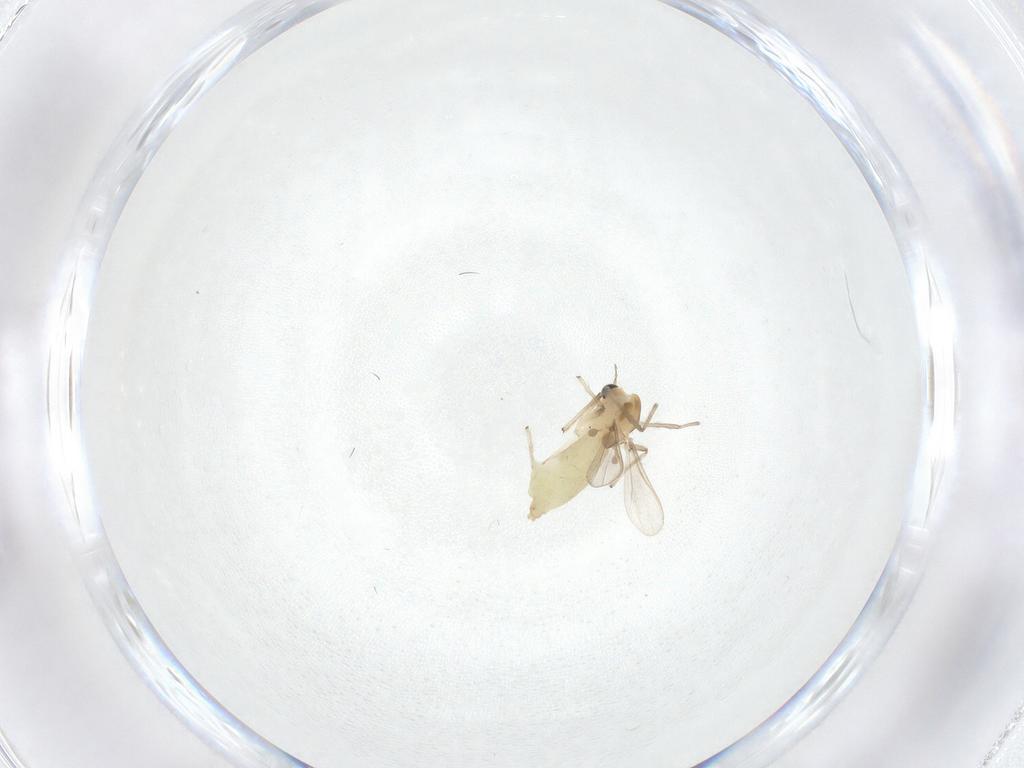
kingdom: Animalia
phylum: Arthropoda
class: Insecta
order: Diptera
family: Chironomidae
